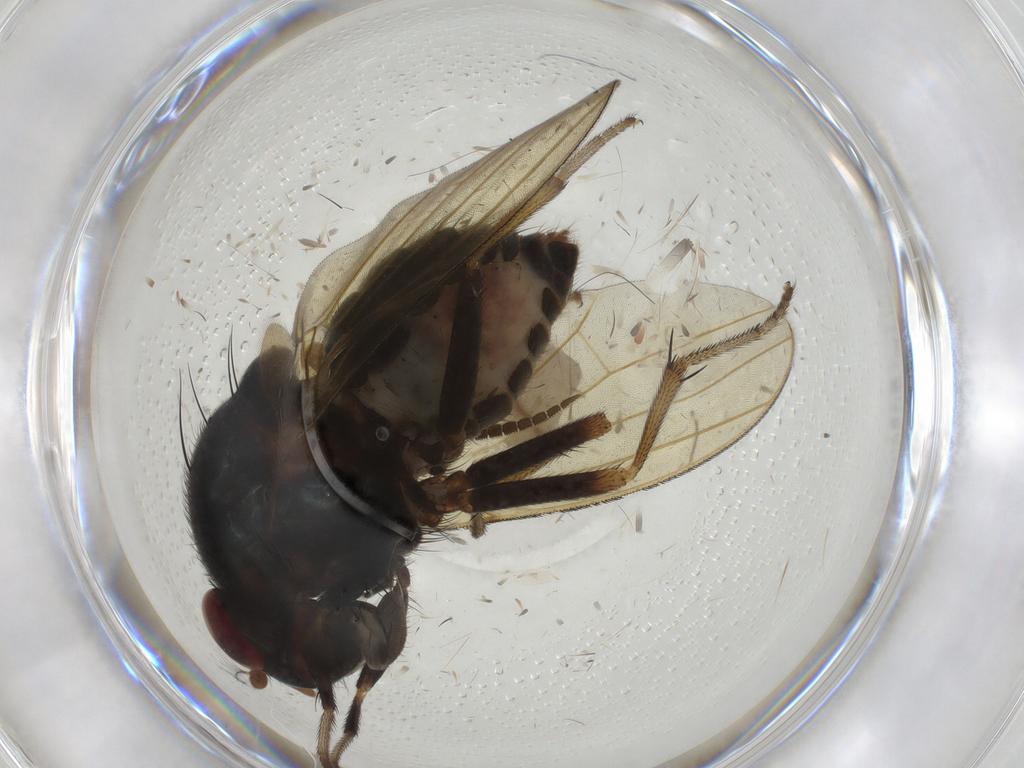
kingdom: Animalia
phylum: Arthropoda
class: Insecta
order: Diptera
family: Phoridae
